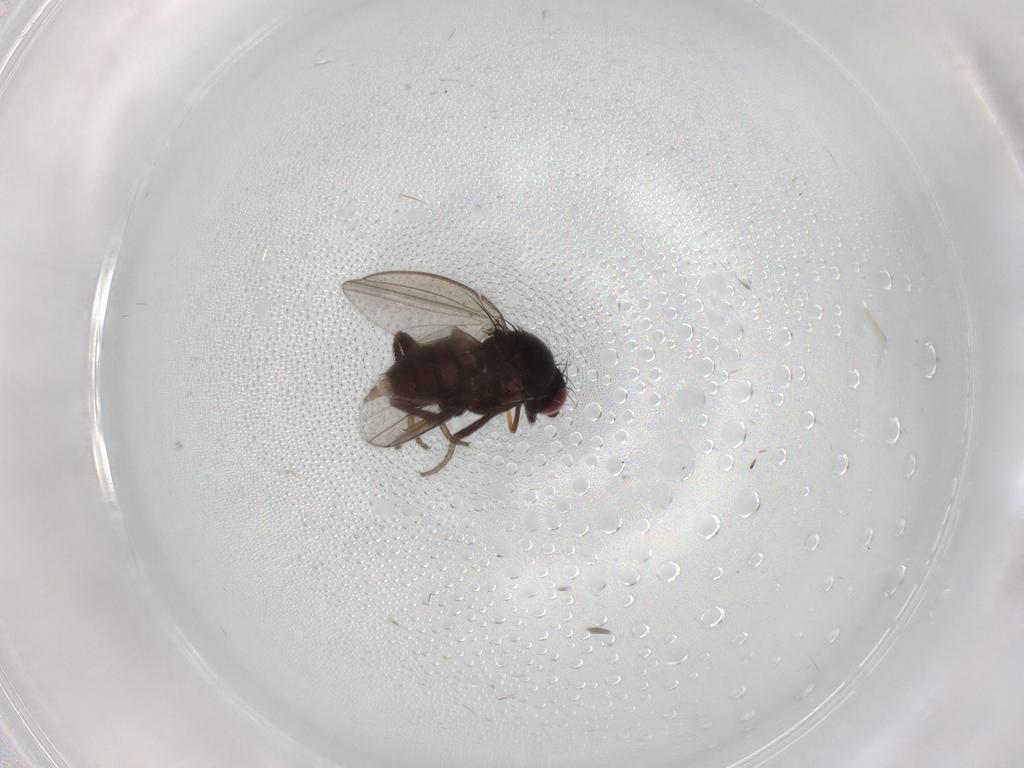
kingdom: Animalia
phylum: Arthropoda
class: Insecta
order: Diptera
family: Milichiidae
